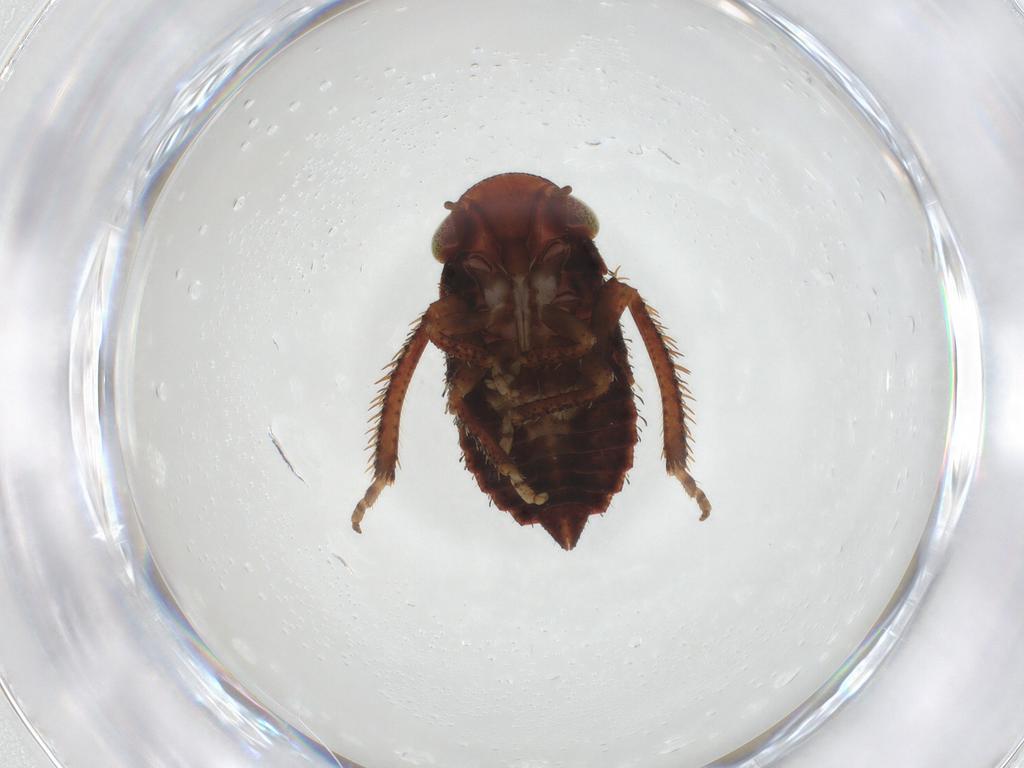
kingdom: Animalia
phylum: Arthropoda
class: Insecta
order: Hemiptera
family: Cicadellidae
